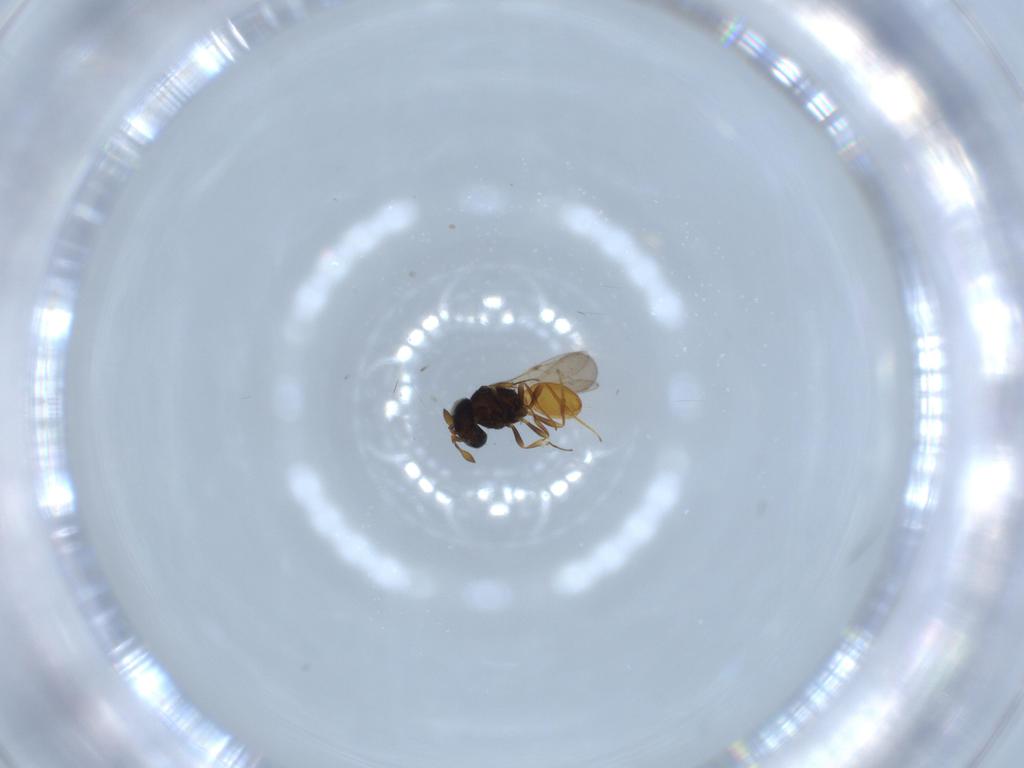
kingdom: Animalia
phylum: Arthropoda
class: Insecta
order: Hymenoptera
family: Scelionidae
